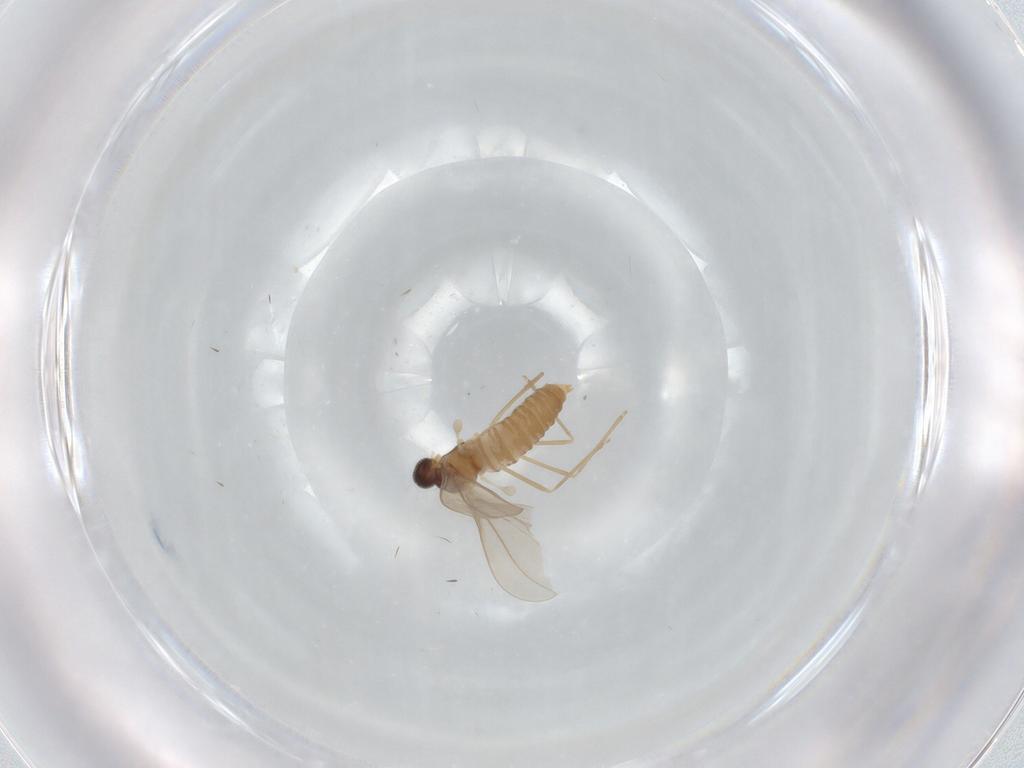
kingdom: Animalia
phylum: Arthropoda
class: Insecta
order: Diptera
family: Cecidomyiidae
